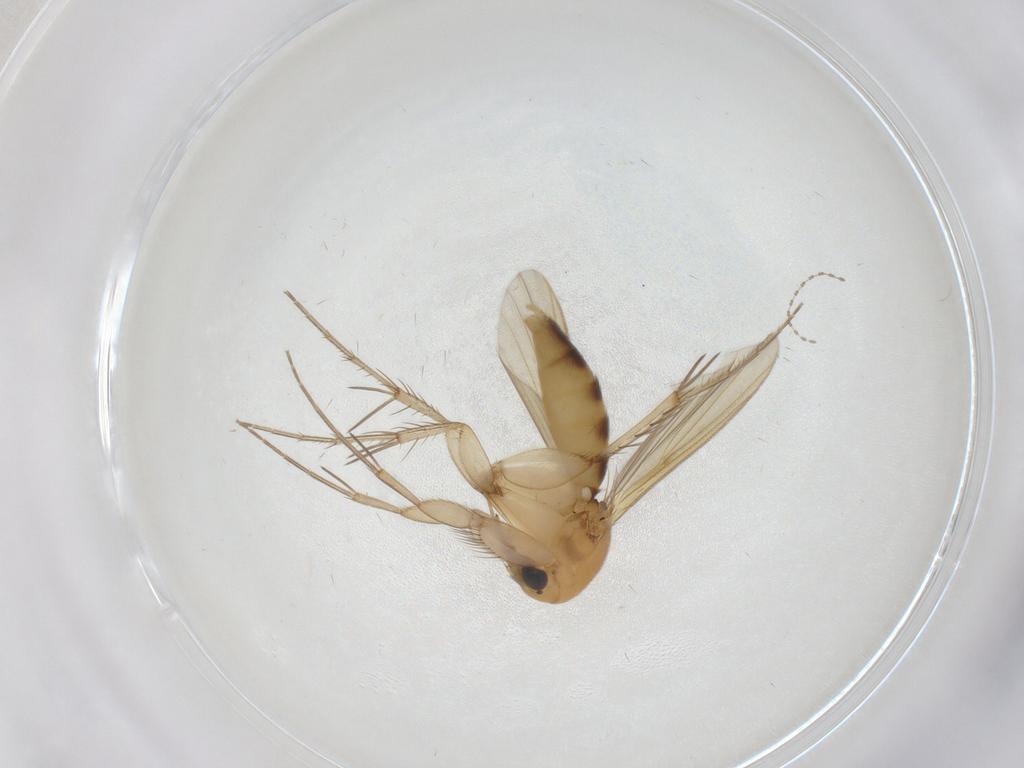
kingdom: Animalia
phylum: Arthropoda
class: Insecta
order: Diptera
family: Mycetophilidae
